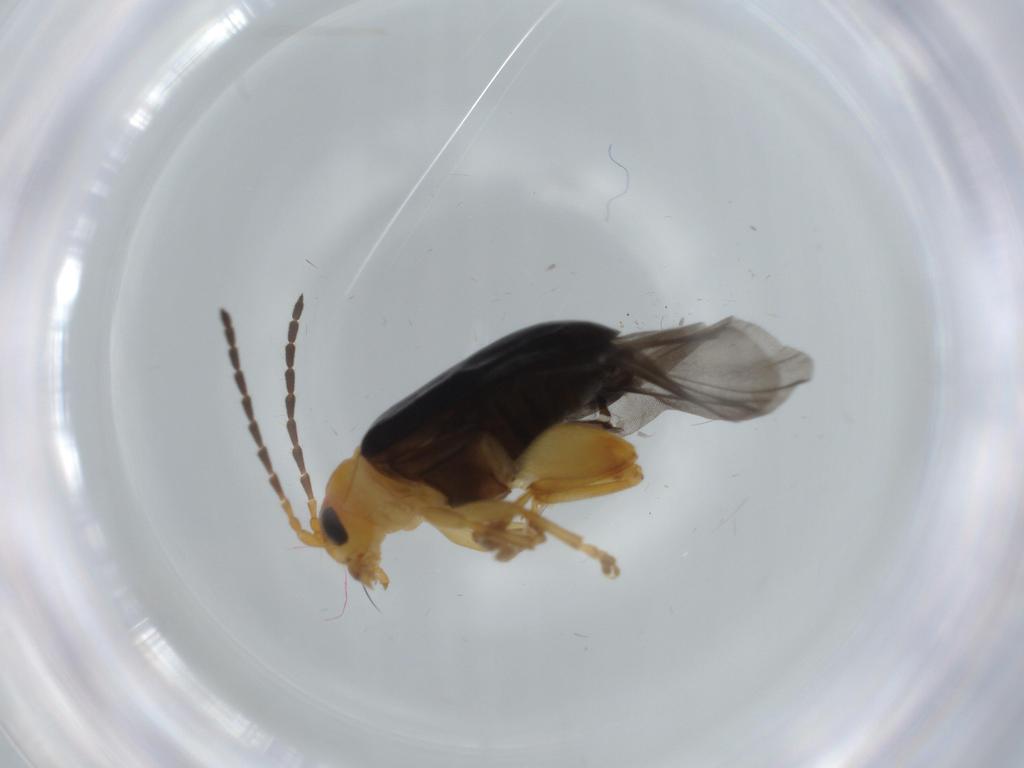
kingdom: Animalia
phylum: Arthropoda
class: Insecta
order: Coleoptera
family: Chrysomelidae
